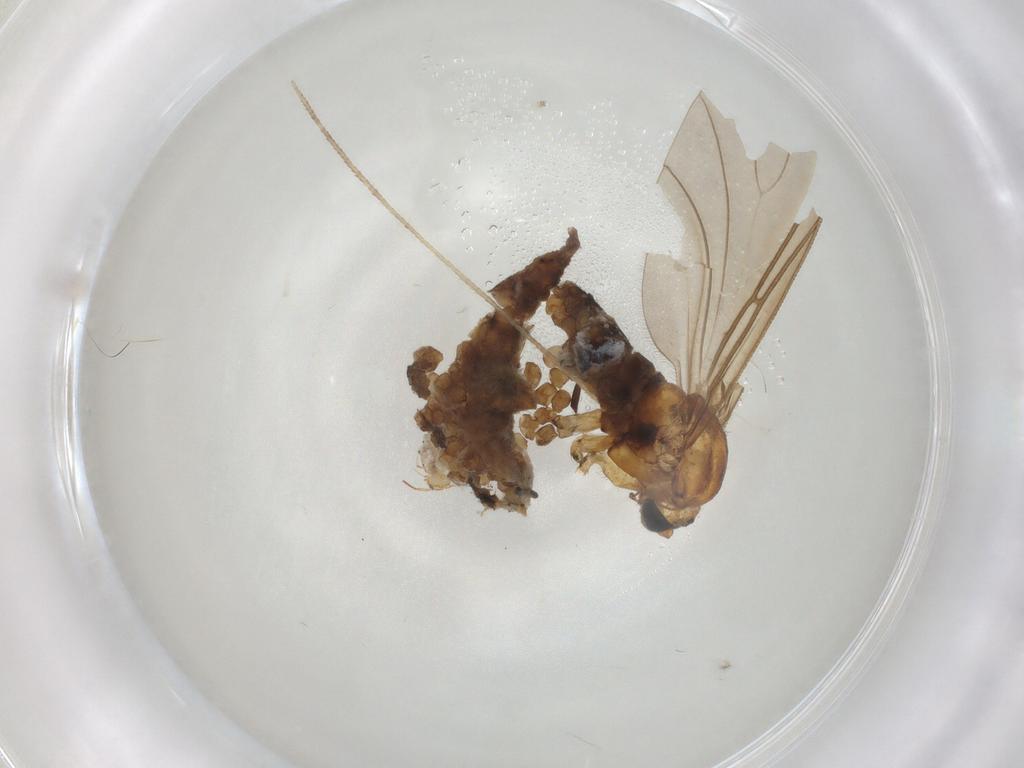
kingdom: Animalia
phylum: Arthropoda
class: Insecta
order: Diptera
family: Sciaridae
